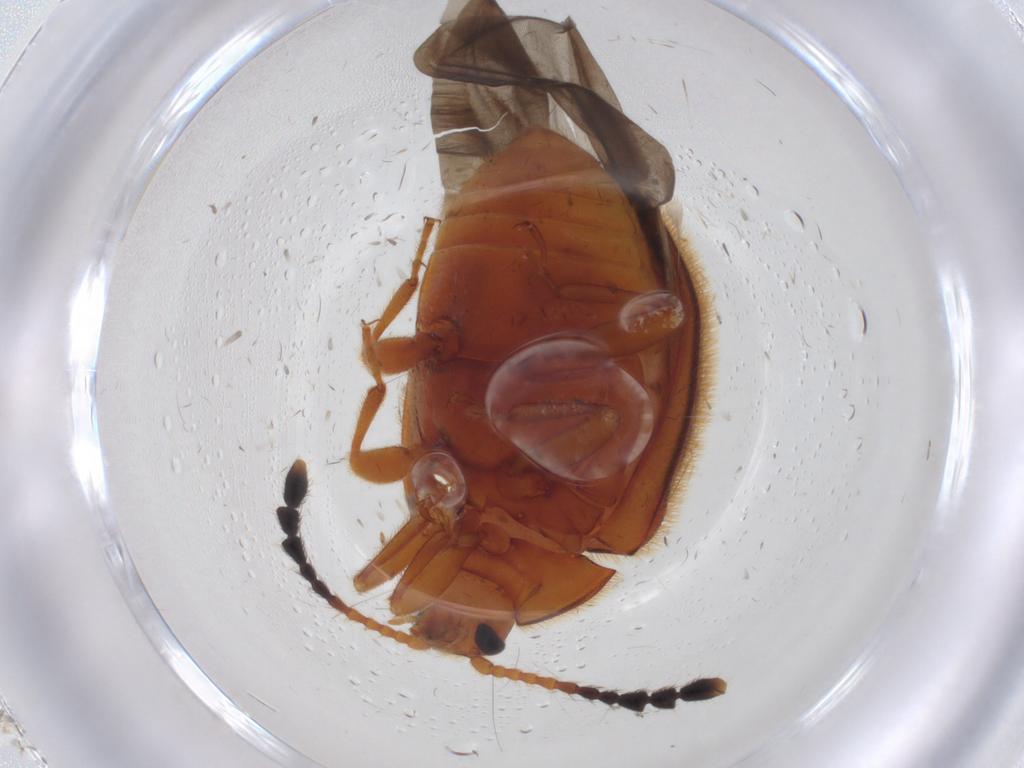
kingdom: Animalia
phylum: Arthropoda
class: Insecta
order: Coleoptera
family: Endomychidae
